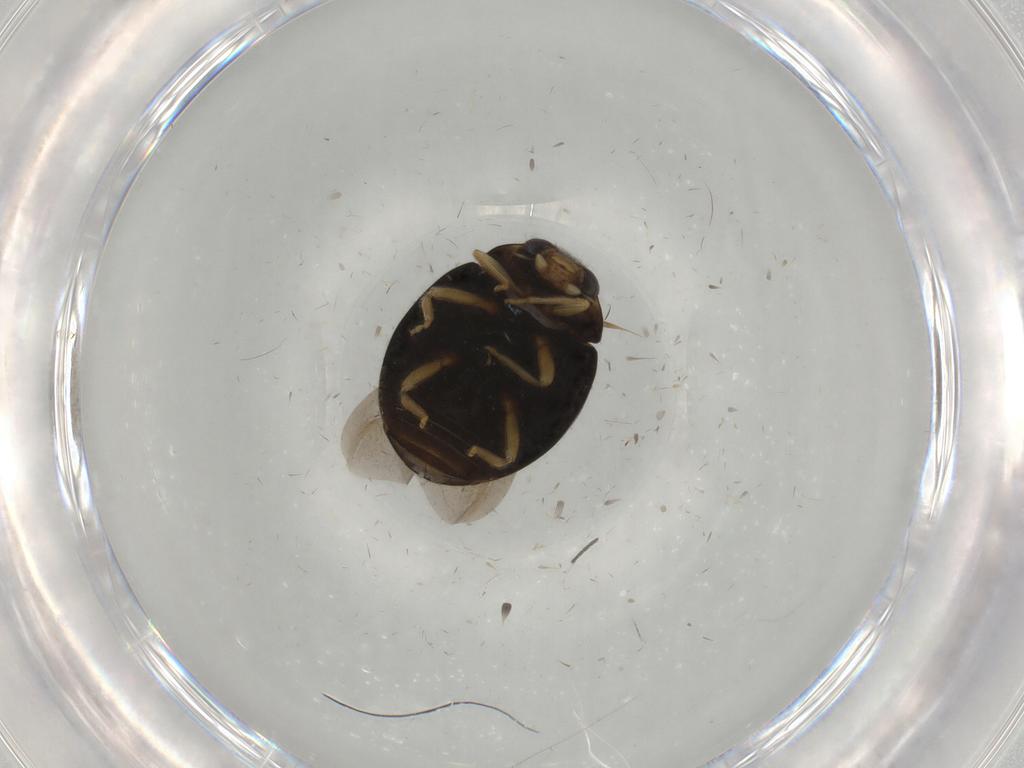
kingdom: Animalia
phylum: Arthropoda
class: Insecta
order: Coleoptera
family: Coccinellidae
